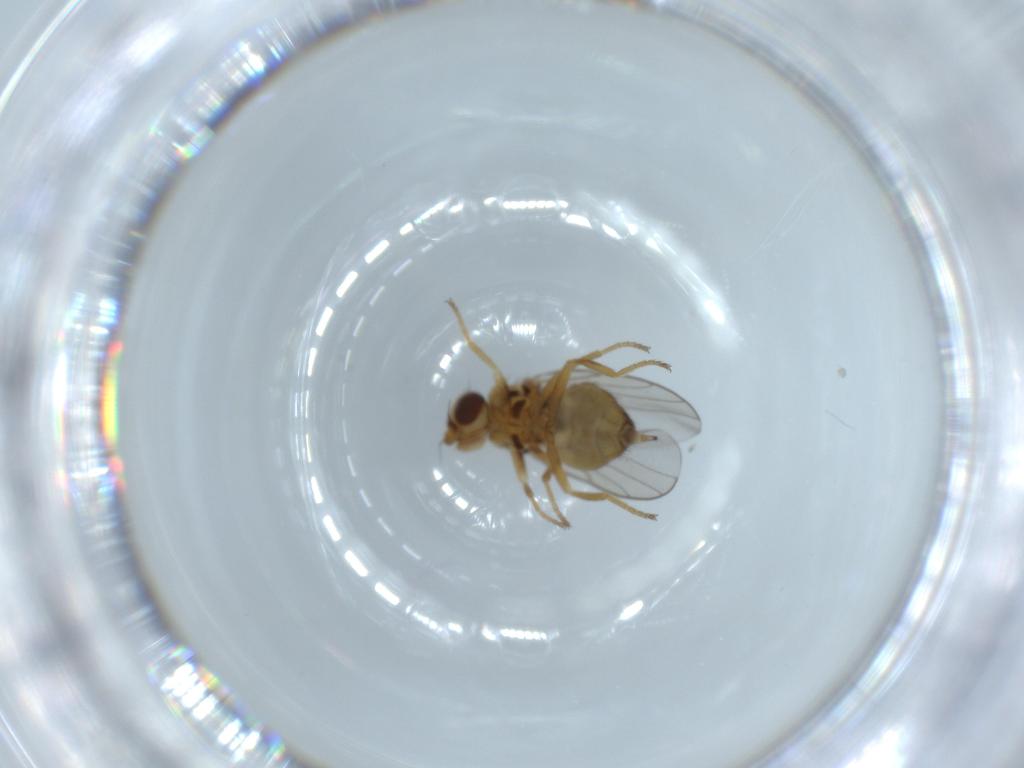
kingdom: Animalia
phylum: Arthropoda
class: Insecta
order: Diptera
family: Chloropidae
